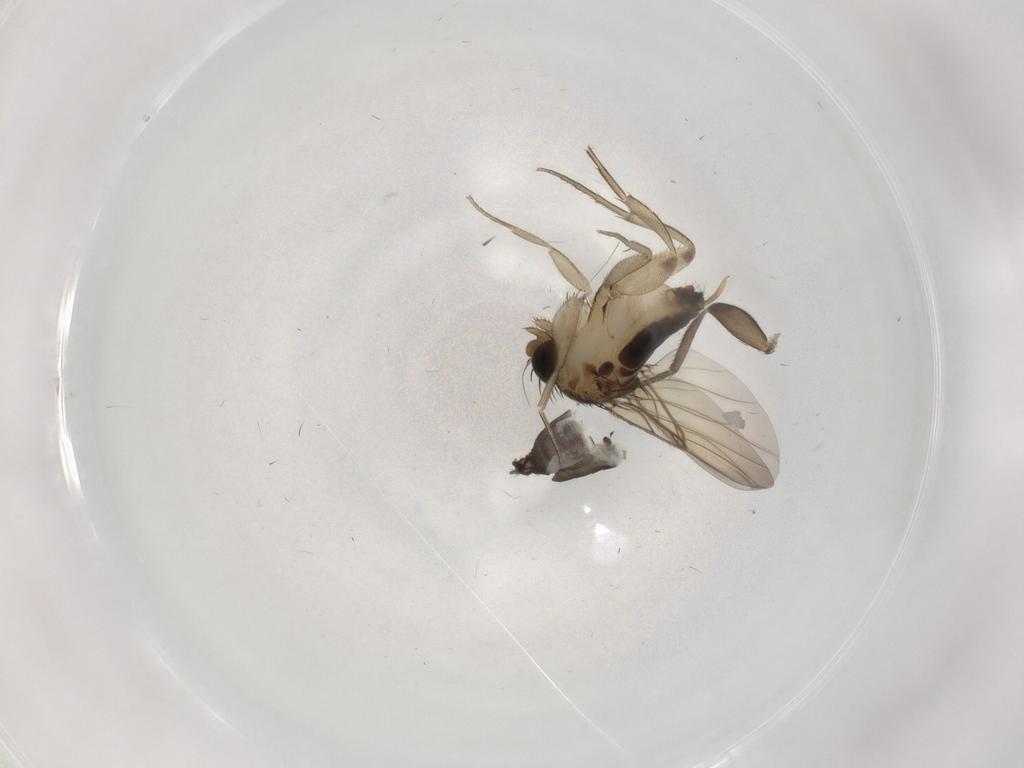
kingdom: Animalia
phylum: Arthropoda
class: Insecta
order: Diptera
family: Phoridae
